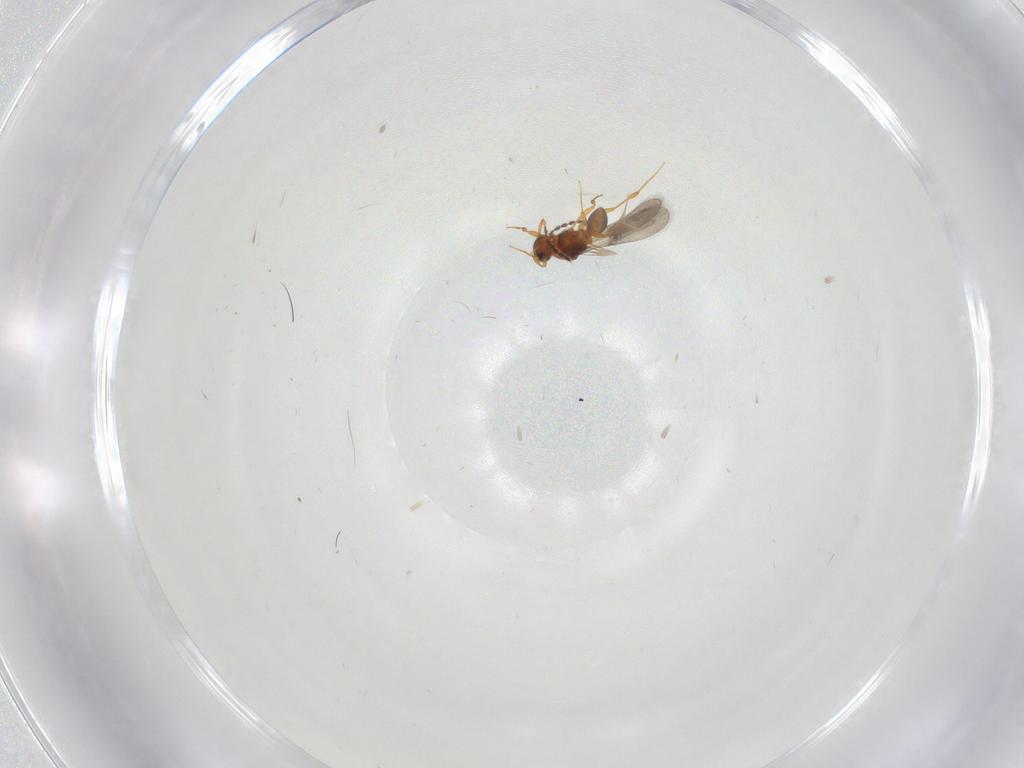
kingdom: Animalia
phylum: Arthropoda
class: Insecta
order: Hymenoptera
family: Platygastridae
